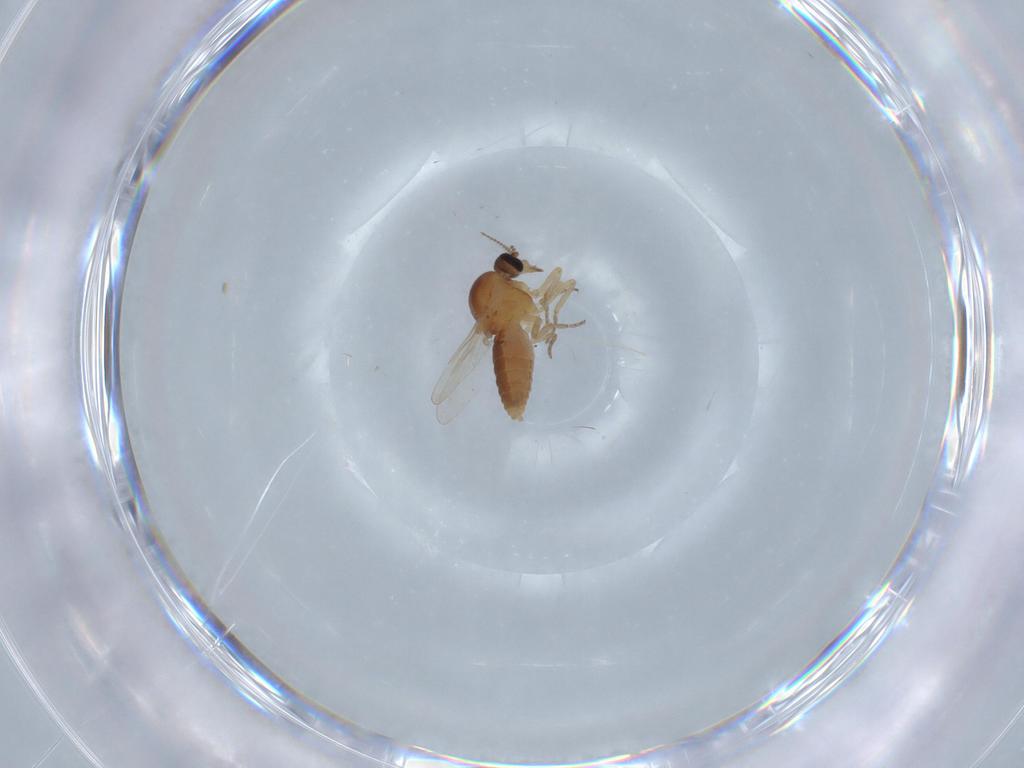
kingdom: Animalia
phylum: Arthropoda
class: Insecta
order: Diptera
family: Ceratopogonidae
